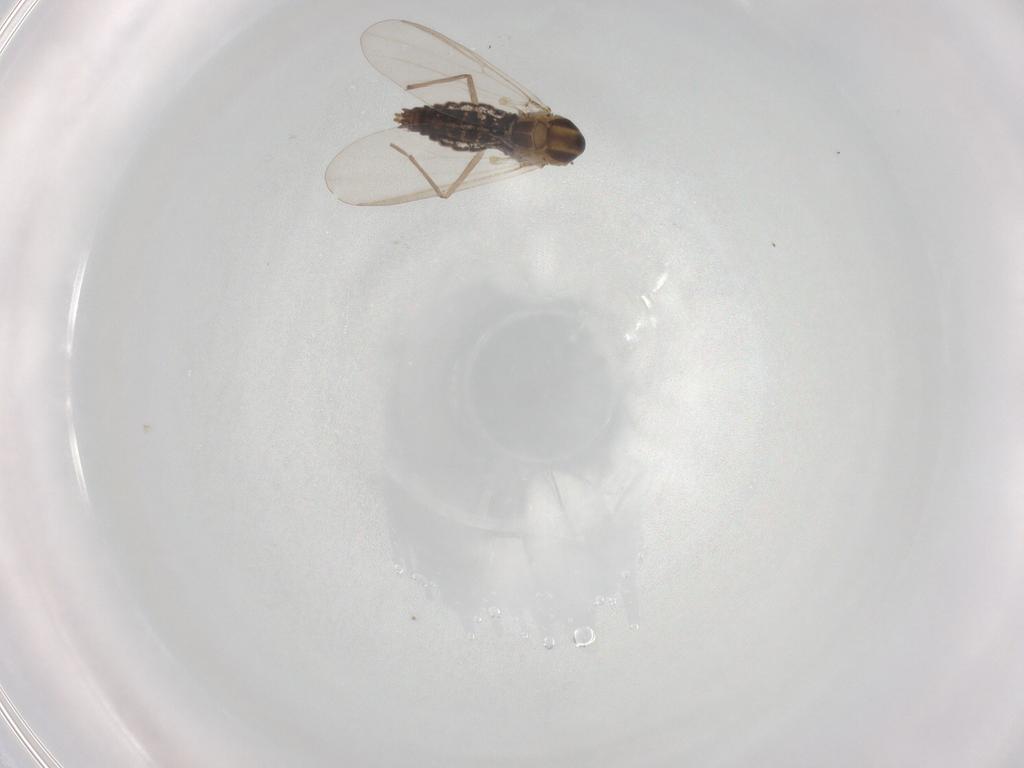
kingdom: Animalia
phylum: Arthropoda
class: Insecta
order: Diptera
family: Chironomidae
